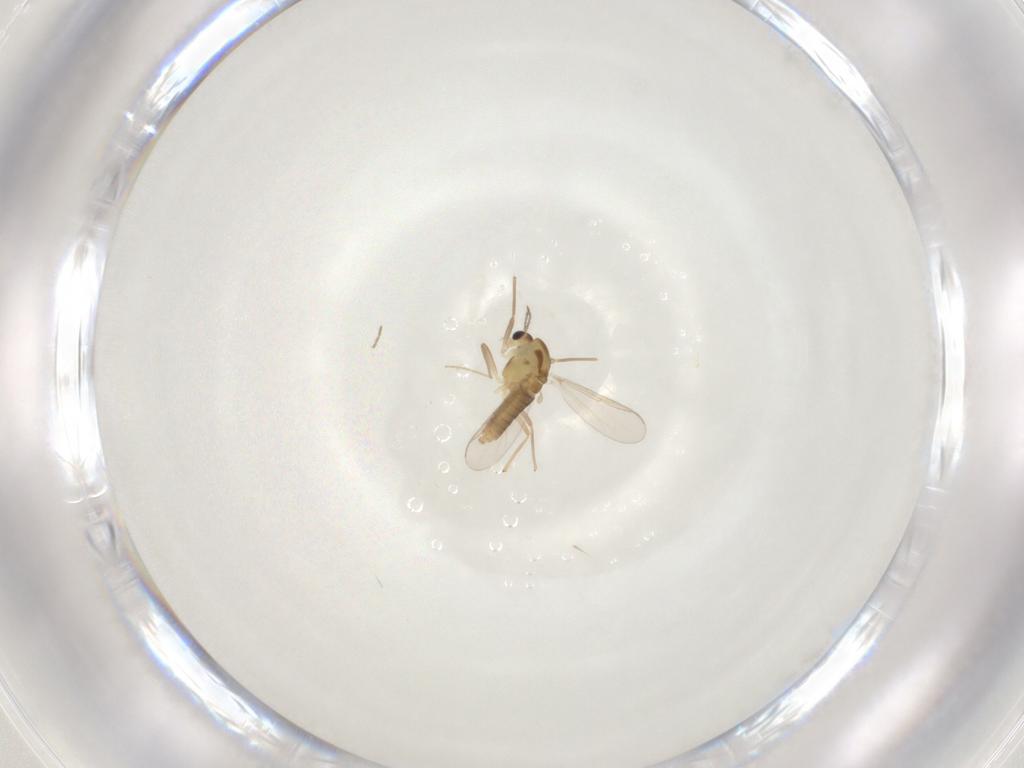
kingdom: Animalia
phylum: Arthropoda
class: Insecta
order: Diptera
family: Chironomidae
